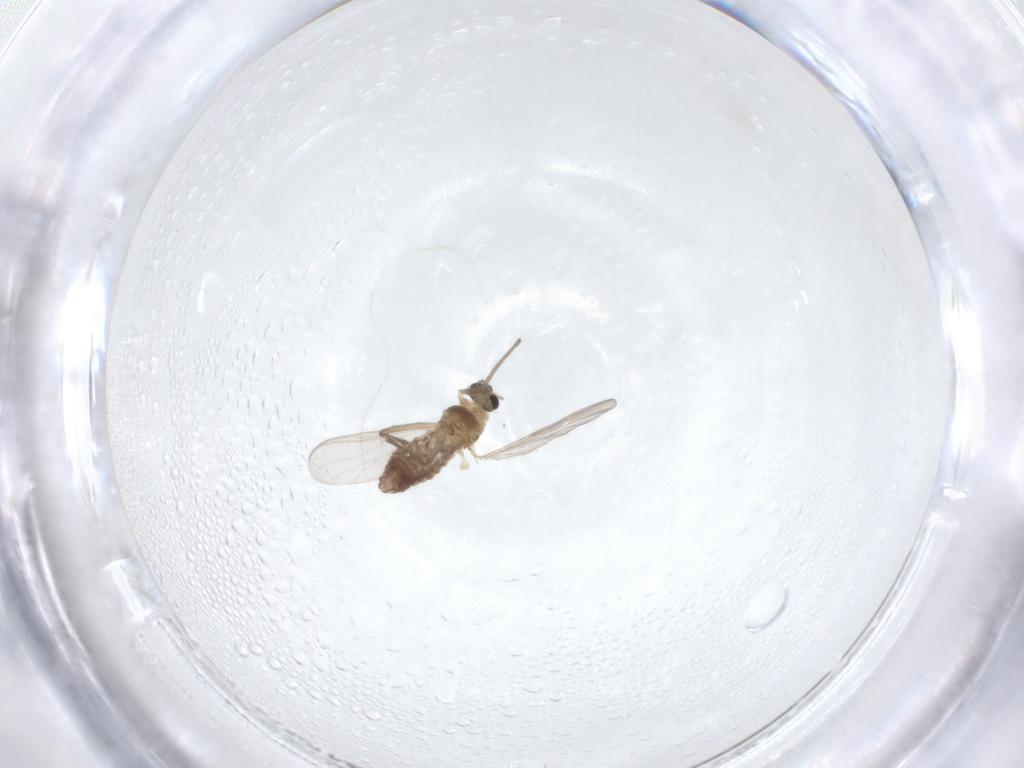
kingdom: Animalia
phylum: Arthropoda
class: Insecta
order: Diptera
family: Chironomidae
